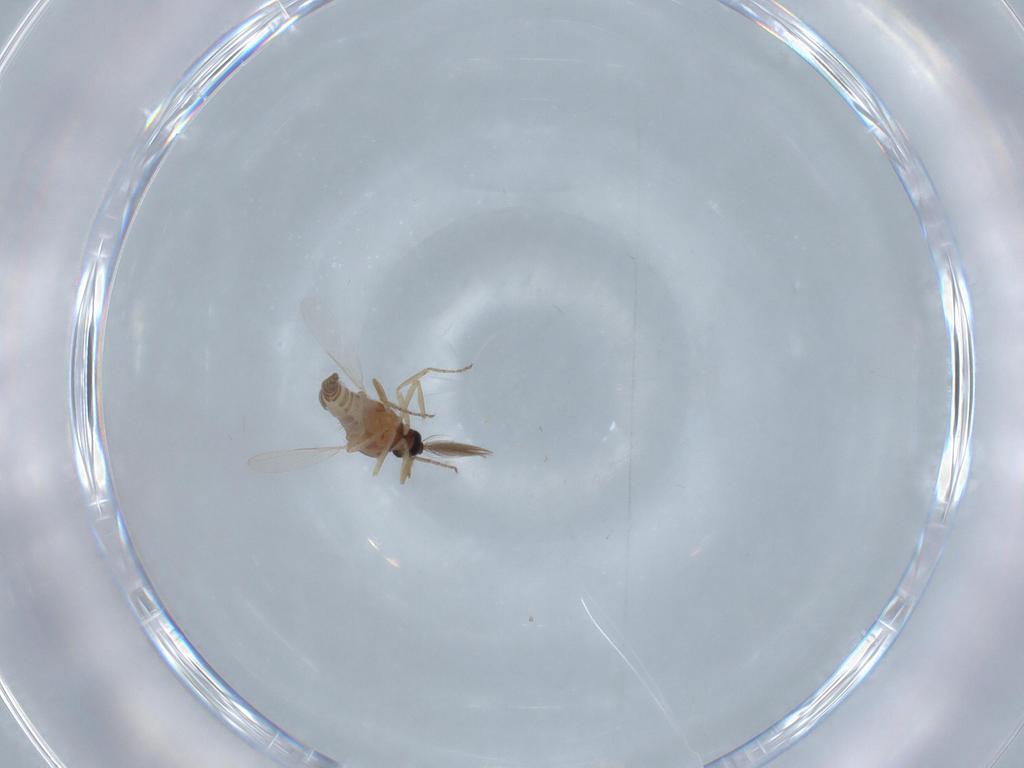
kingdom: Animalia
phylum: Arthropoda
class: Insecta
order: Diptera
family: Ceratopogonidae
